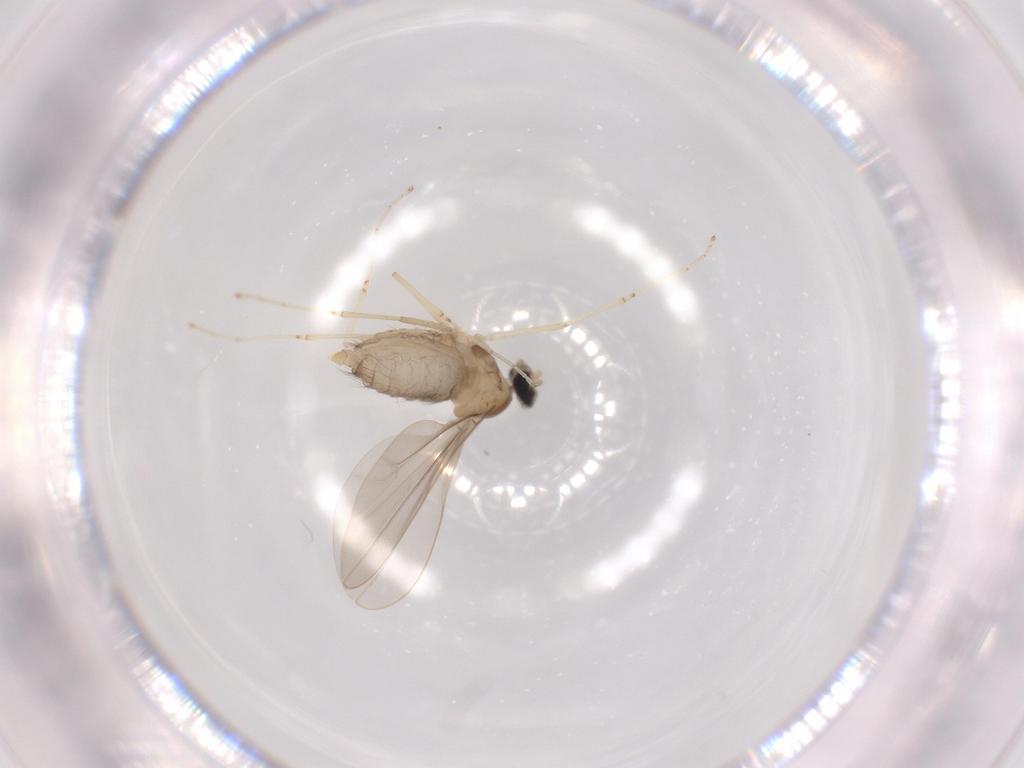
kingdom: Animalia
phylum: Arthropoda
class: Insecta
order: Diptera
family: Cecidomyiidae
